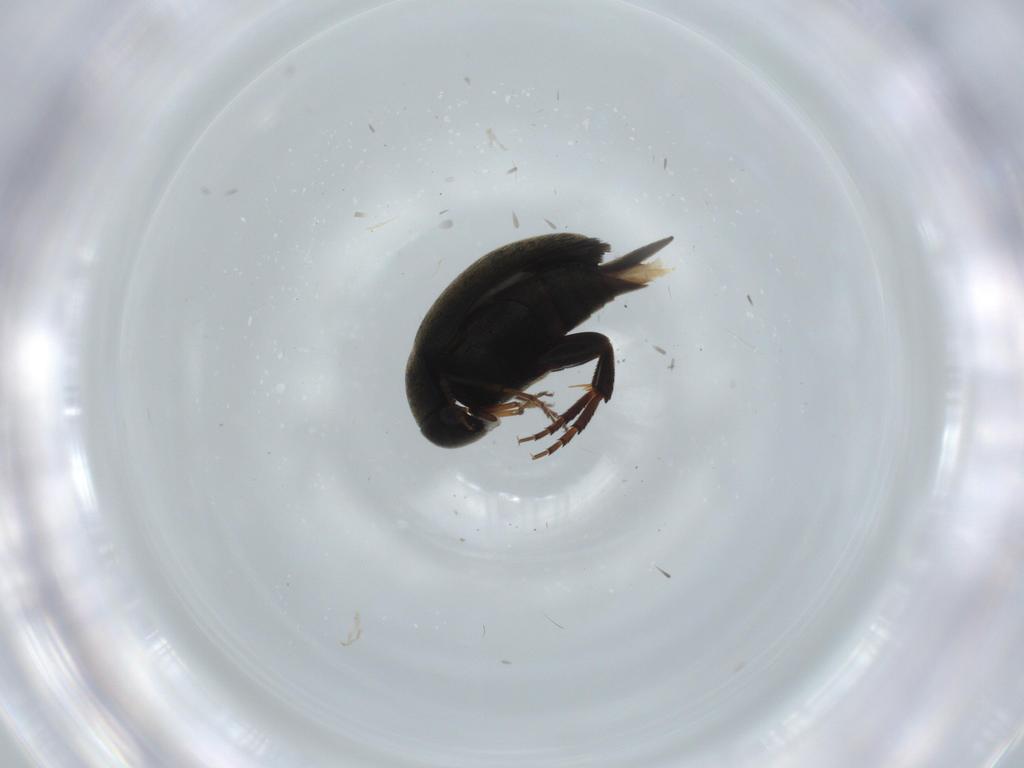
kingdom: Animalia
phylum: Arthropoda
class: Insecta
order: Coleoptera
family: Mordellidae
